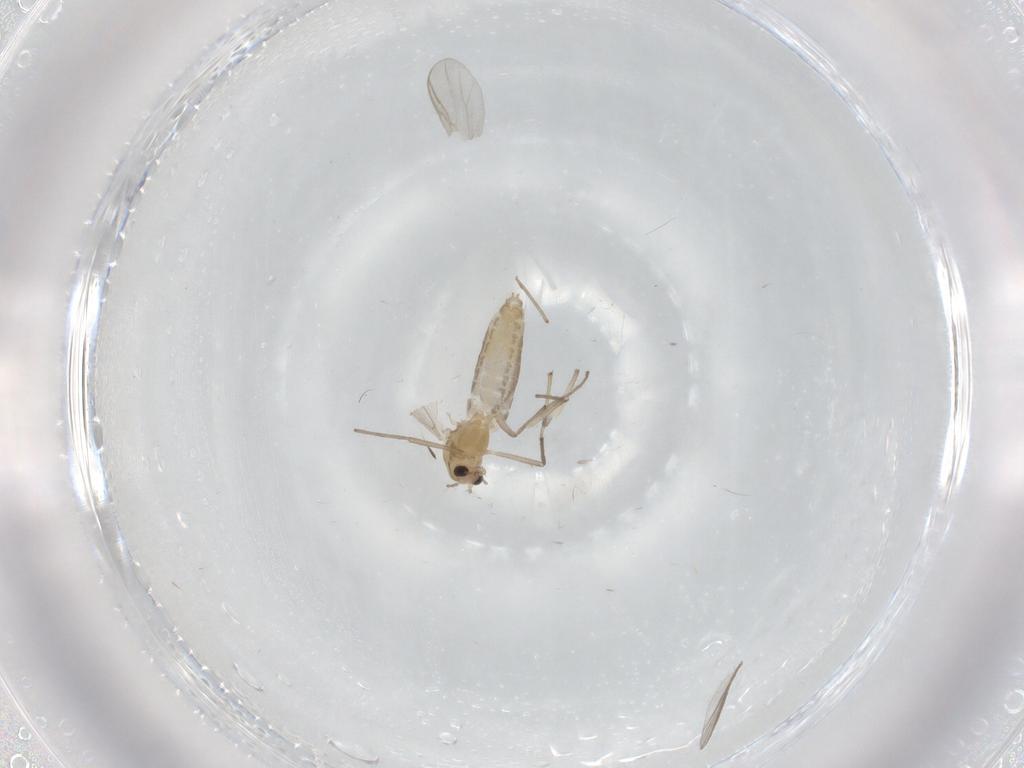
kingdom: Animalia
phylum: Arthropoda
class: Insecta
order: Diptera
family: Chironomidae
